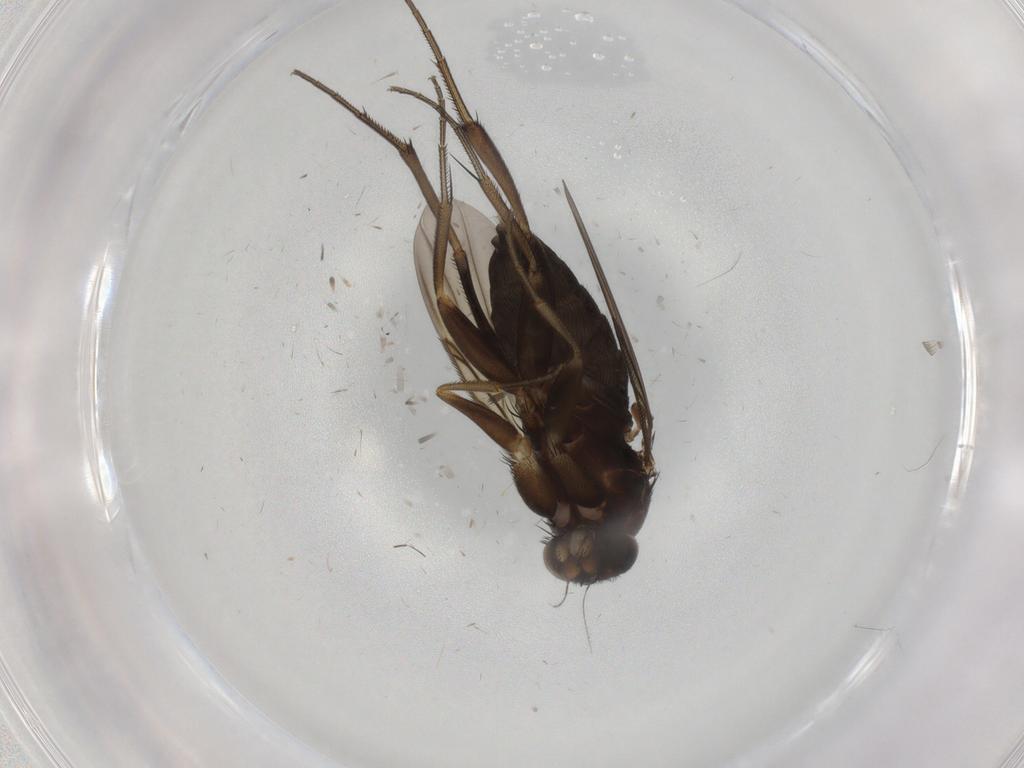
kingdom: Animalia
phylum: Arthropoda
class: Insecta
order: Diptera
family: Phoridae
